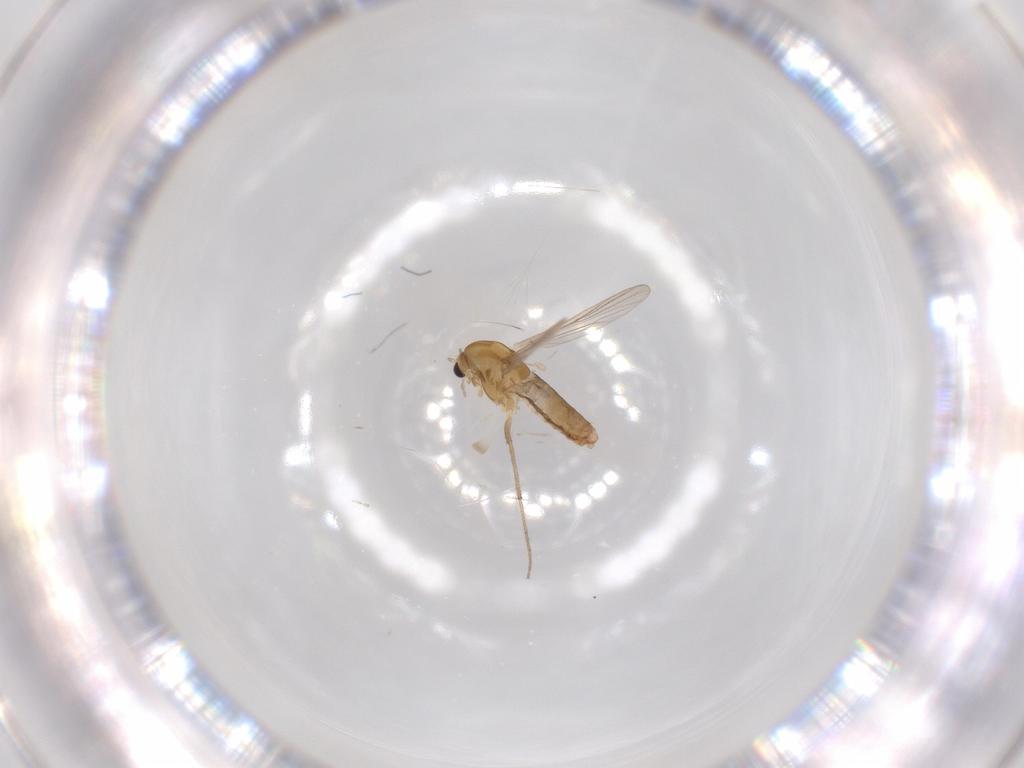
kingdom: Animalia
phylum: Arthropoda
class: Insecta
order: Diptera
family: Chironomidae
